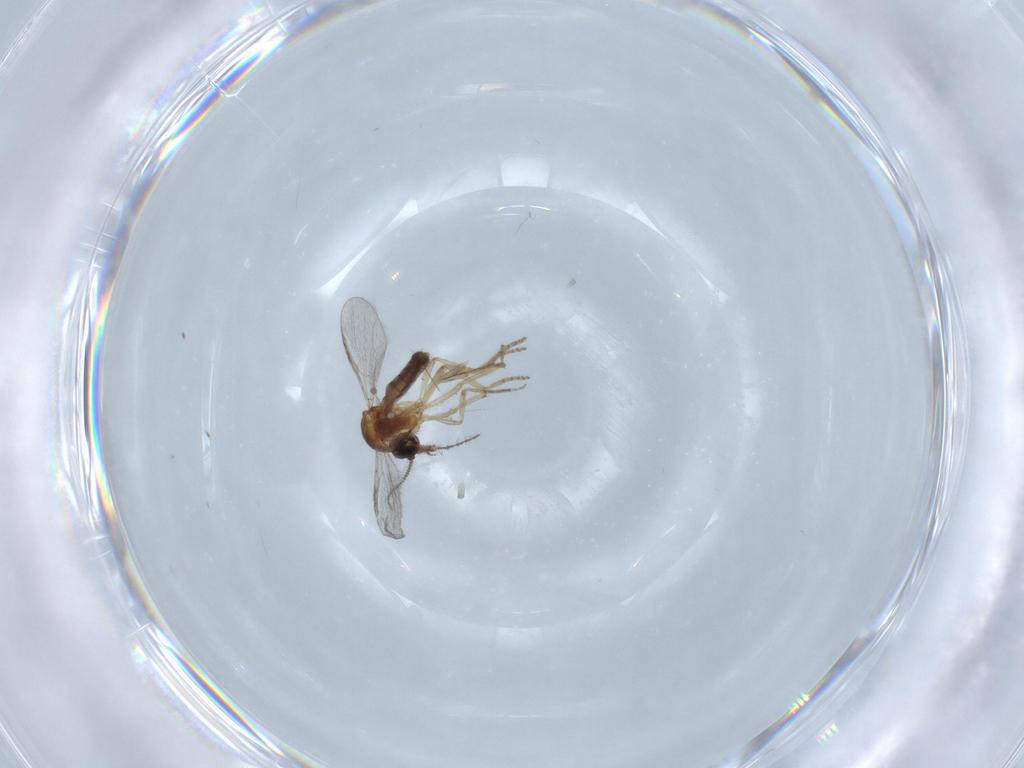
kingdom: Animalia
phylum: Arthropoda
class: Insecta
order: Diptera
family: Psychodidae
